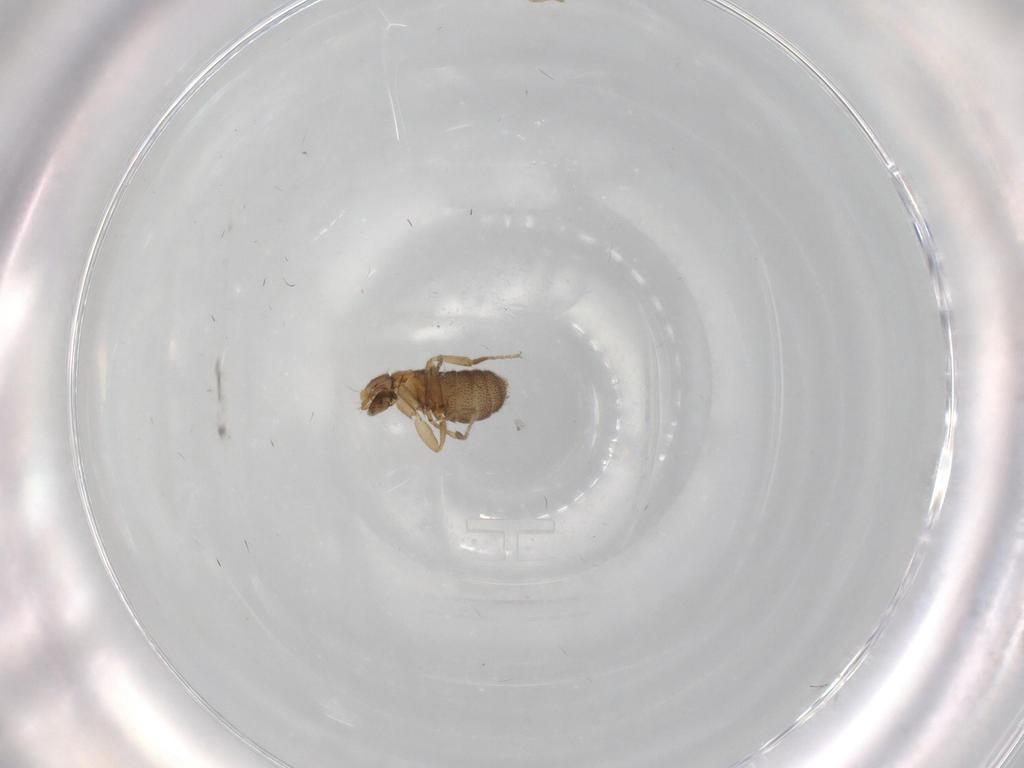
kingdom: Animalia
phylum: Arthropoda
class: Insecta
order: Diptera
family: Phoridae
